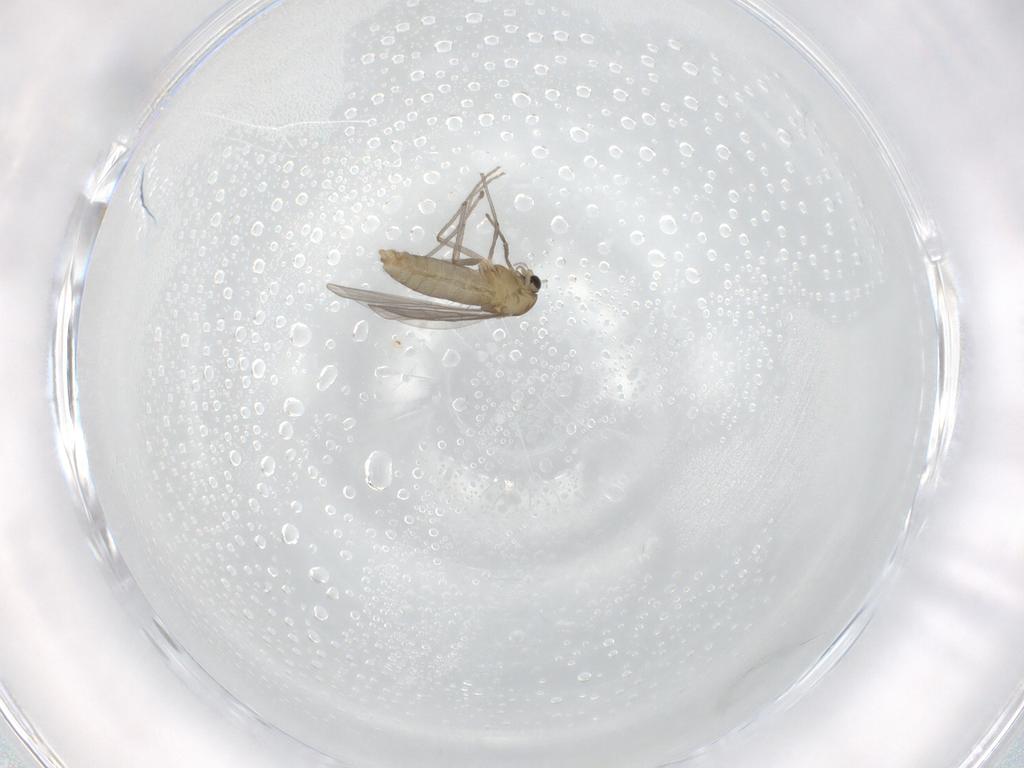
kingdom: Animalia
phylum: Arthropoda
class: Insecta
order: Diptera
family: Chironomidae
